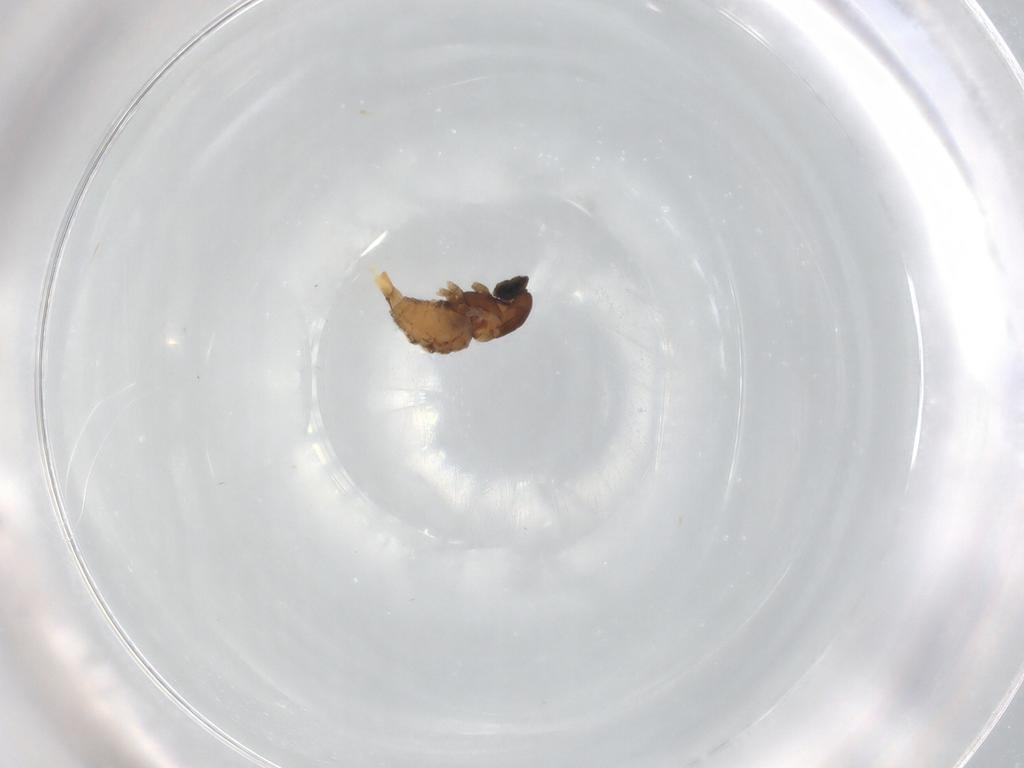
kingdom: Animalia
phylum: Arthropoda
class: Insecta
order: Diptera
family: Cecidomyiidae
